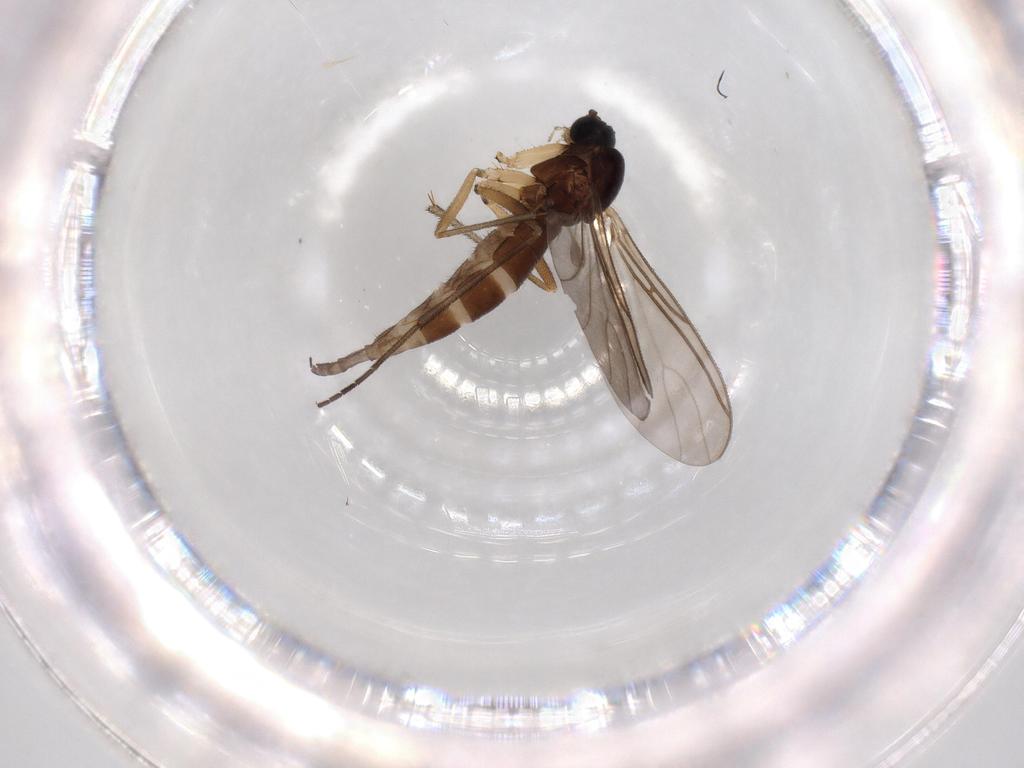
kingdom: Animalia
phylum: Arthropoda
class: Insecta
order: Diptera
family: Sciaridae
